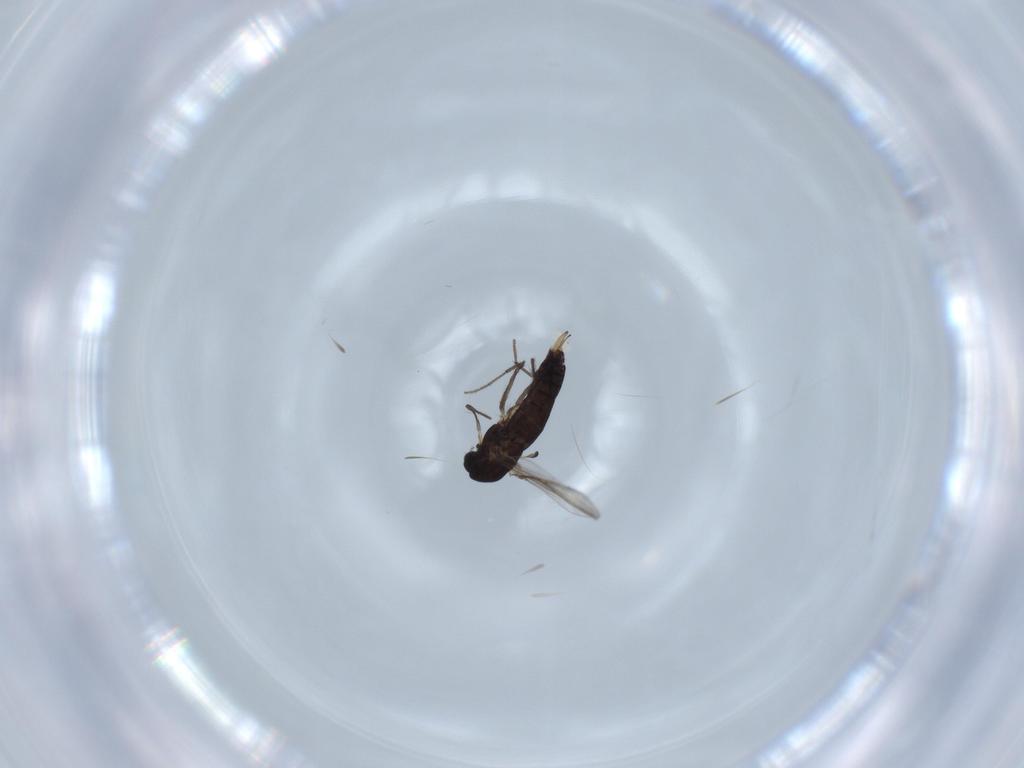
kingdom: Animalia
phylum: Arthropoda
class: Insecta
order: Diptera
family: Chironomidae
